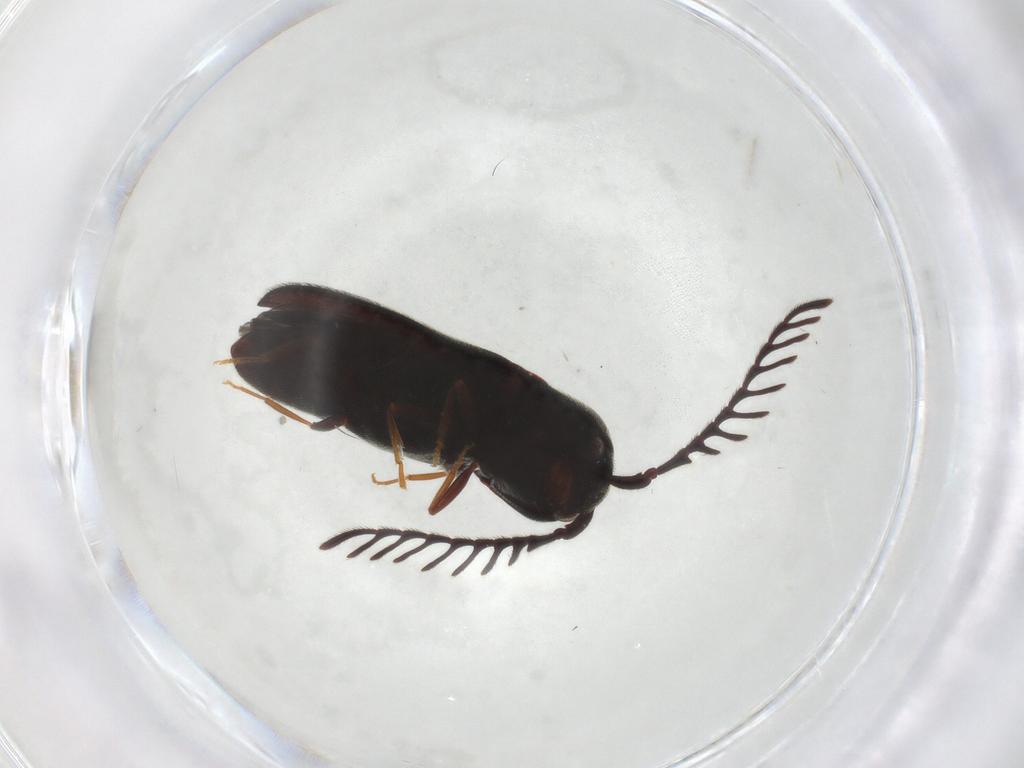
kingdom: Animalia
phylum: Arthropoda
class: Insecta
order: Coleoptera
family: Eucnemidae
